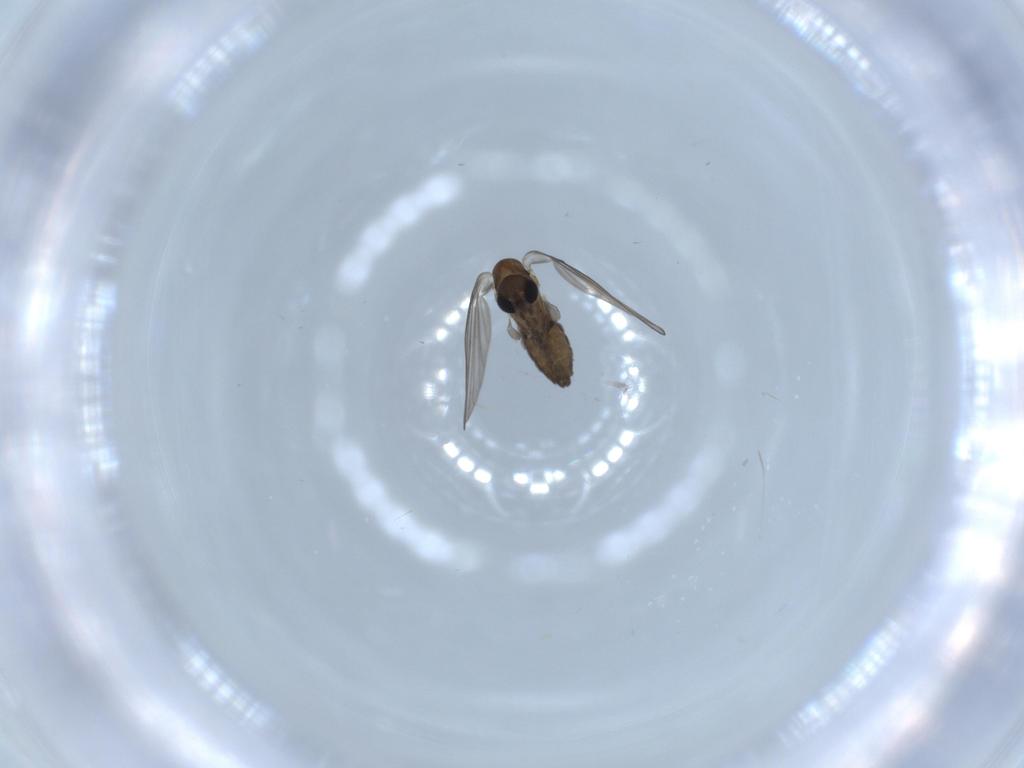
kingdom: Animalia
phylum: Arthropoda
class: Insecta
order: Diptera
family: Psychodidae
